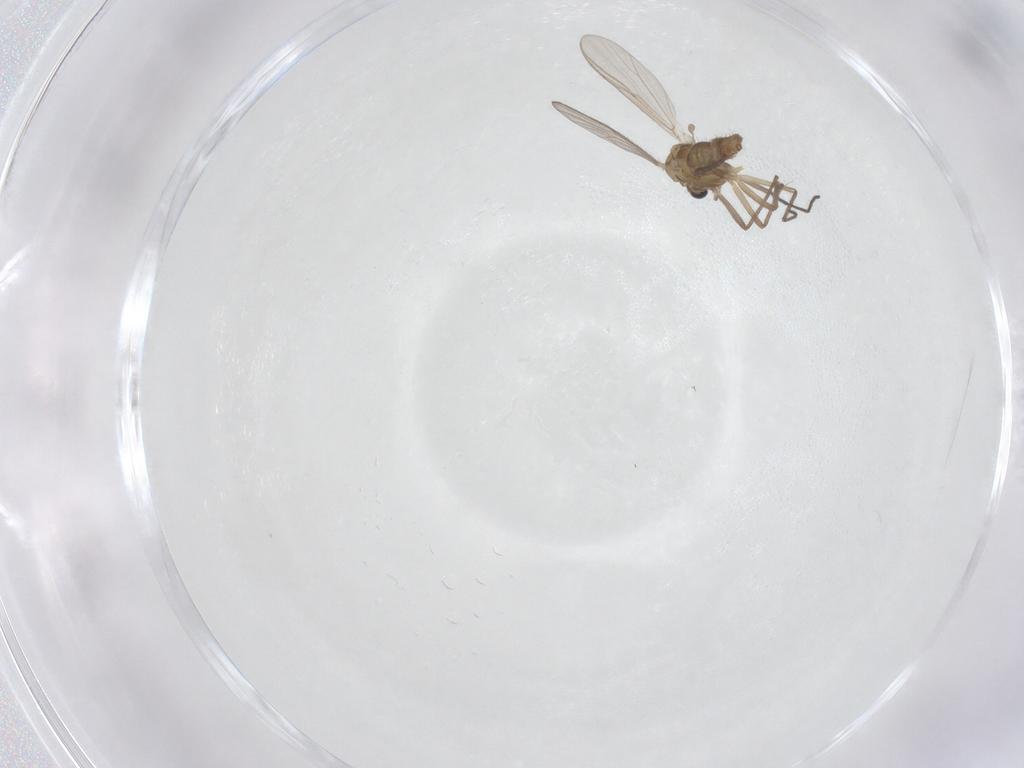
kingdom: Animalia
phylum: Arthropoda
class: Insecta
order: Diptera
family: Chironomidae
